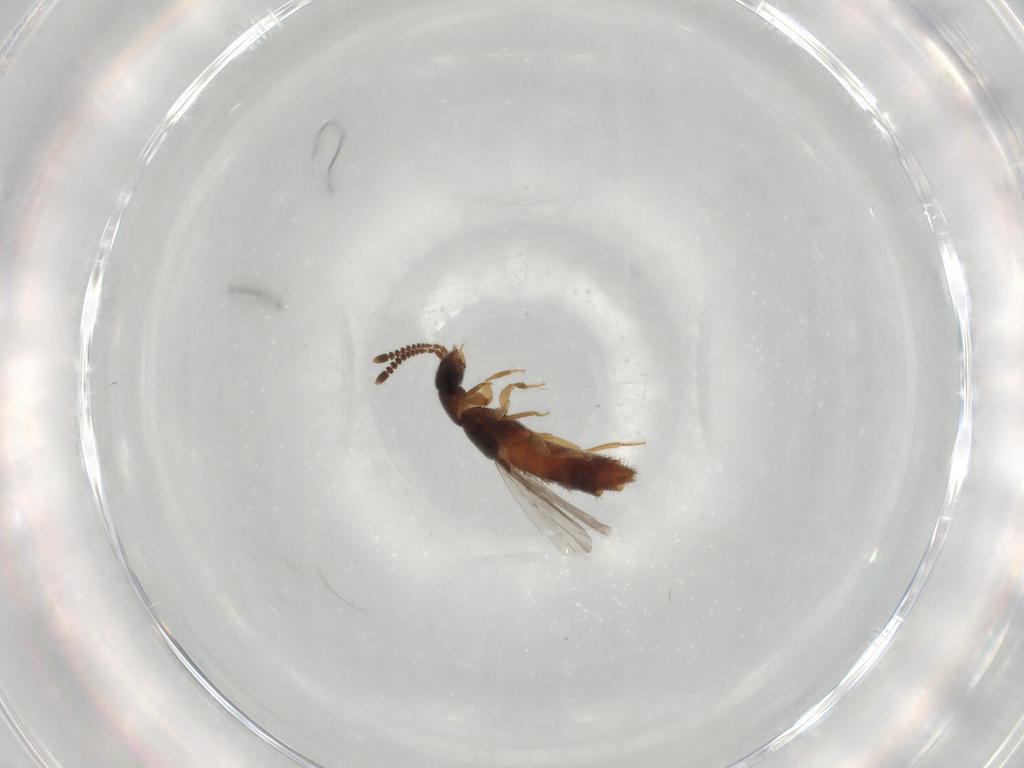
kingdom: Animalia
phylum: Arthropoda
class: Insecta
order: Coleoptera
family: Staphylinidae
